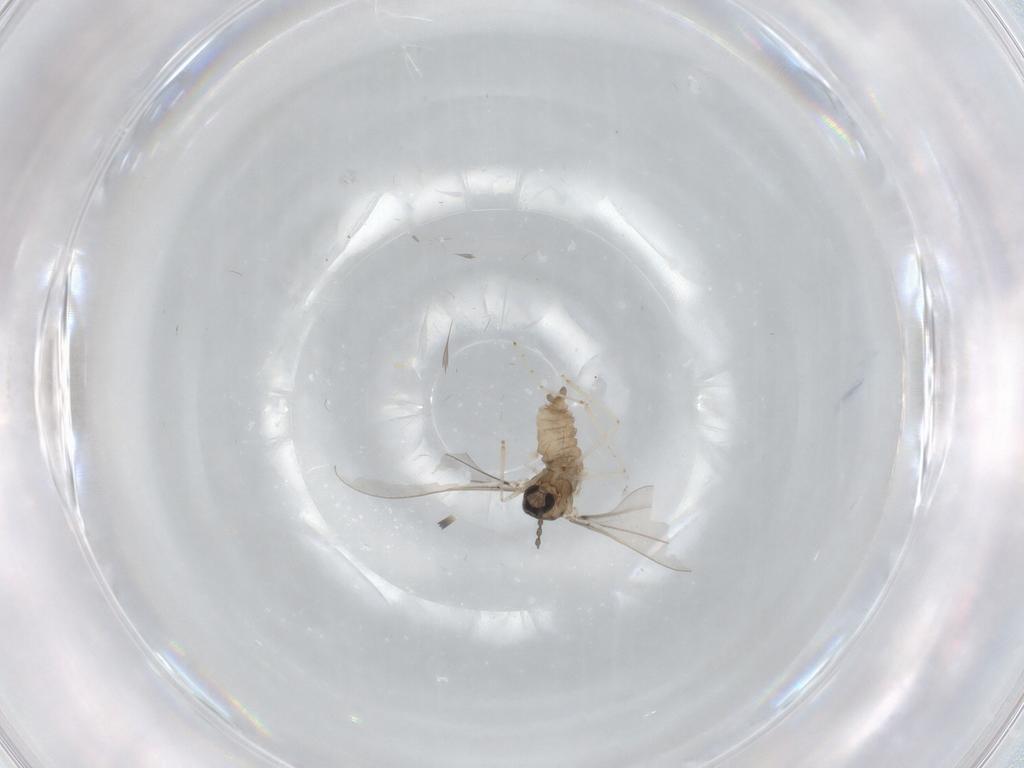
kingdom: Animalia
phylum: Arthropoda
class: Insecta
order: Diptera
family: Cecidomyiidae
